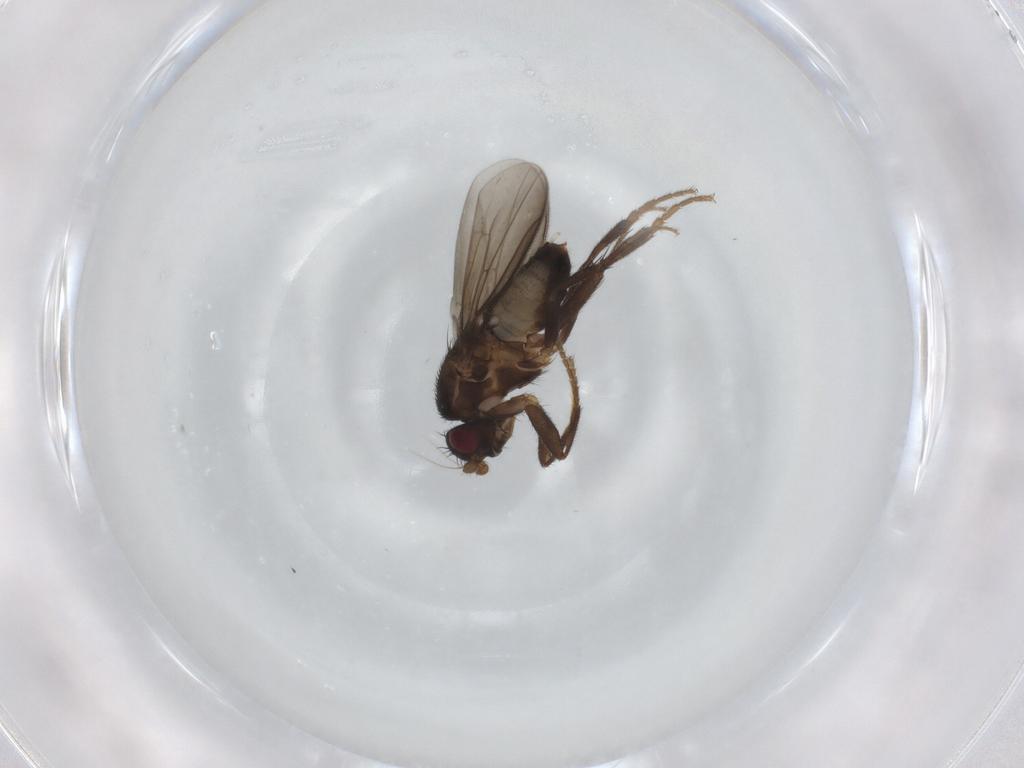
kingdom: Animalia
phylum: Arthropoda
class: Insecta
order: Diptera
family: Sphaeroceridae
